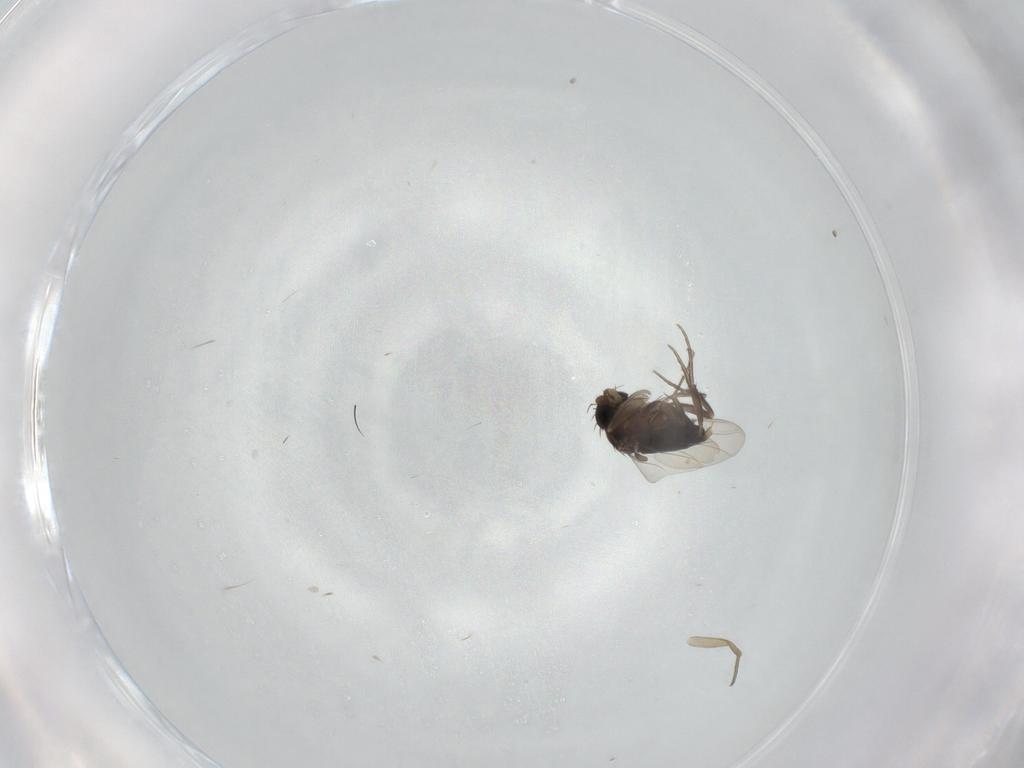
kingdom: Animalia
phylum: Arthropoda
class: Insecta
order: Diptera
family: Phoridae
